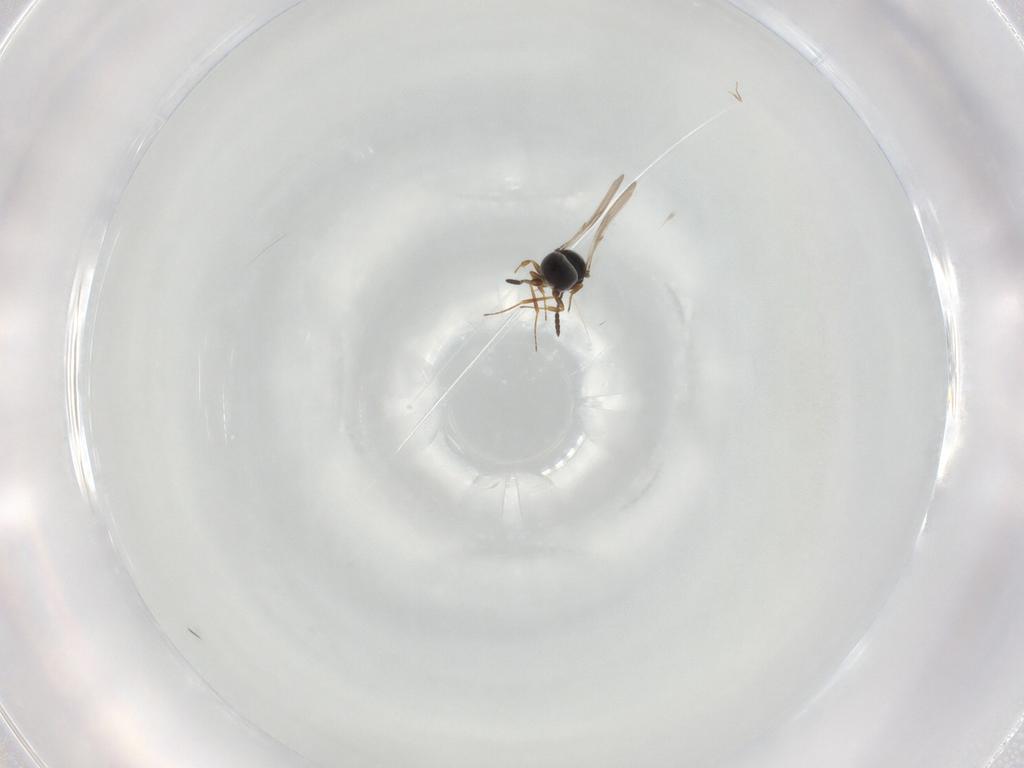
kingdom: Animalia
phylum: Arthropoda
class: Insecta
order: Hymenoptera
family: Scelionidae
